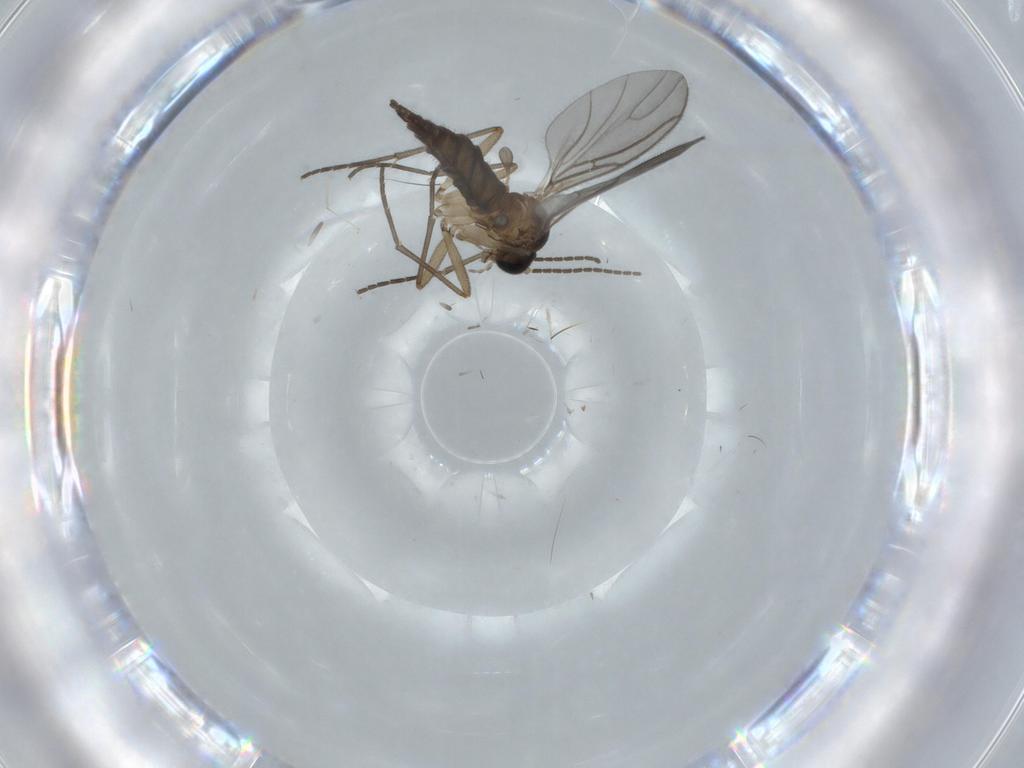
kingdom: Animalia
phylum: Arthropoda
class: Insecta
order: Diptera
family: Sciaridae
